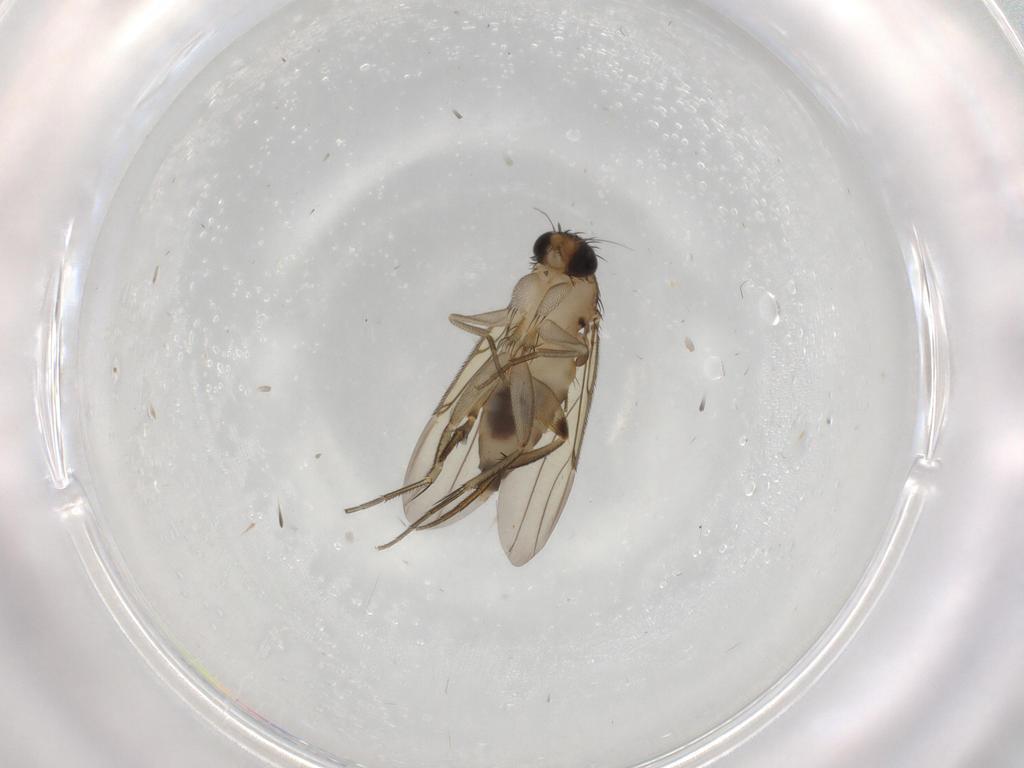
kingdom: Animalia
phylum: Arthropoda
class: Insecta
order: Diptera
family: Phoridae
